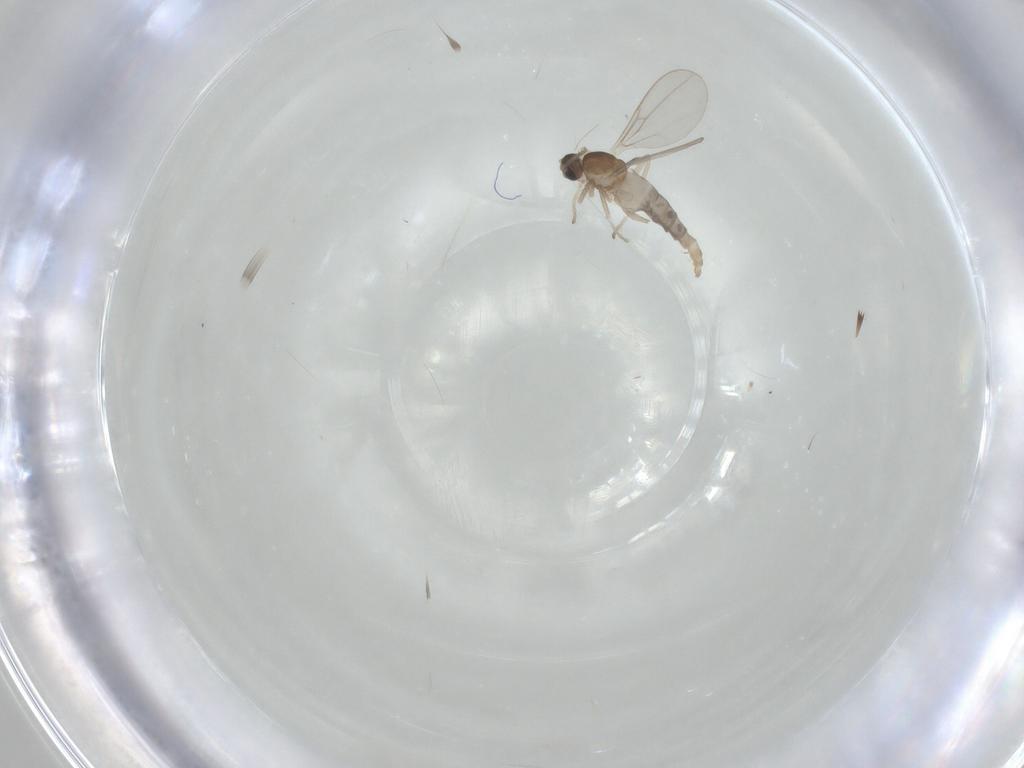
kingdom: Animalia
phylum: Arthropoda
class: Insecta
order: Diptera
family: Cecidomyiidae
